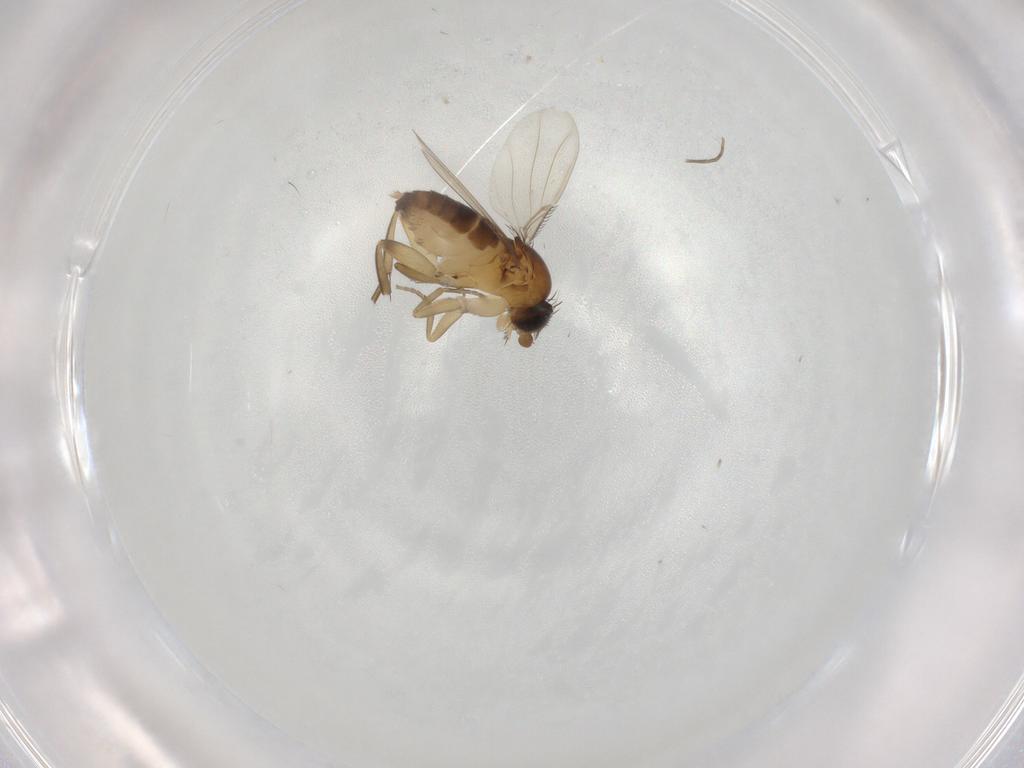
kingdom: Animalia
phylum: Arthropoda
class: Insecta
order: Diptera
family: Phoridae
